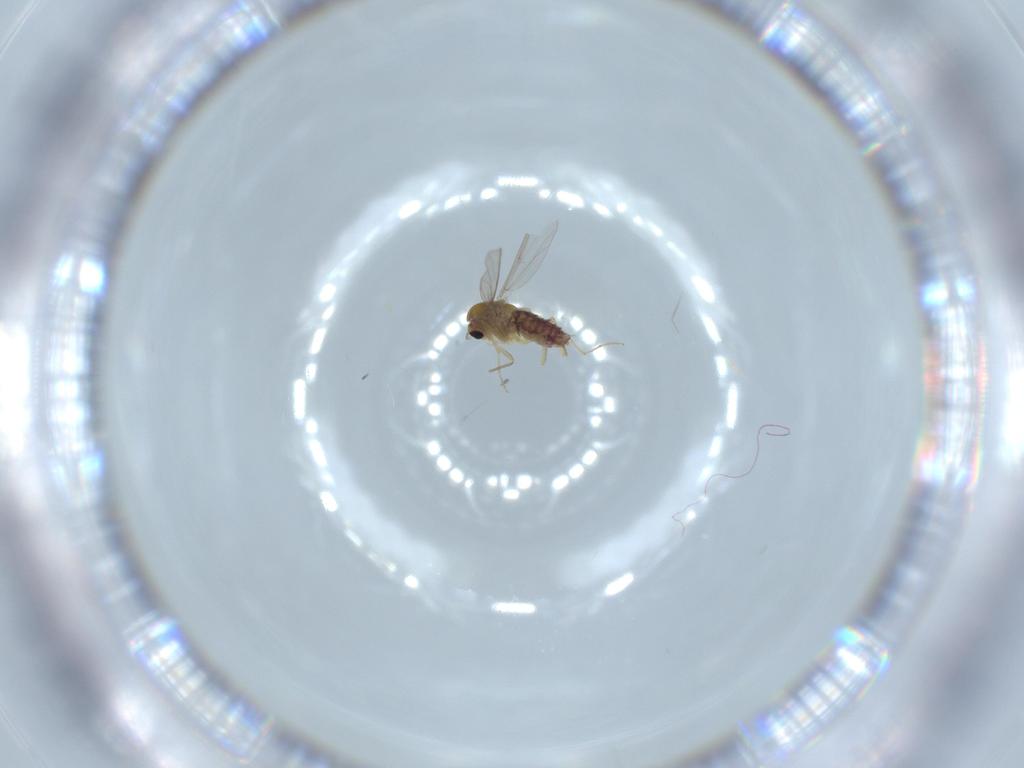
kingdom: Animalia
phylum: Arthropoda
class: Insecta
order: Diptera
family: Chironomidae
